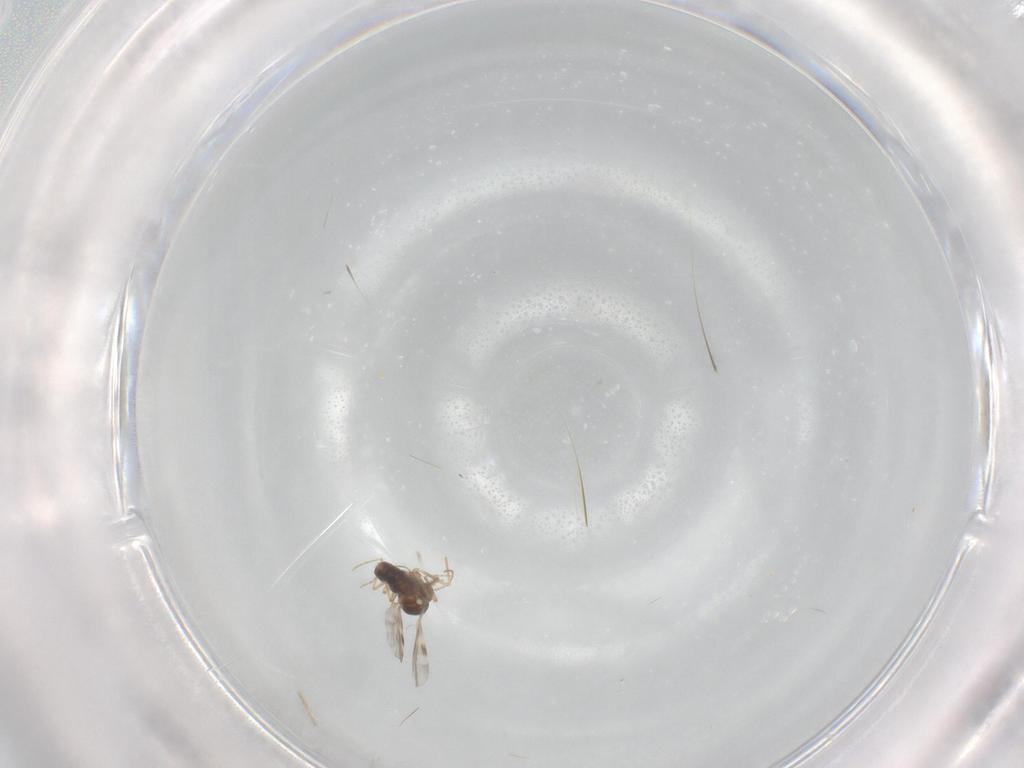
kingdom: Animalia
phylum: Arthropoda
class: Insecta
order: Diptera
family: Cecidomyiidae
